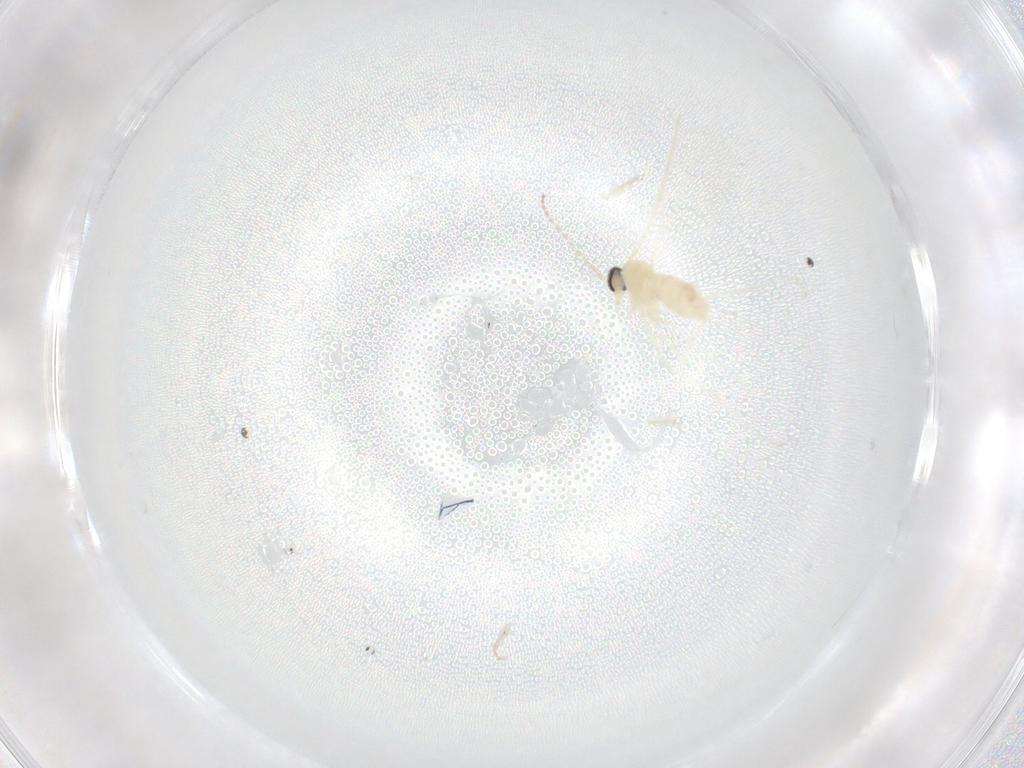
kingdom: Animalia
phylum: Arthropoda
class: Insecta
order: Diptera
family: Cecidomyiidae
